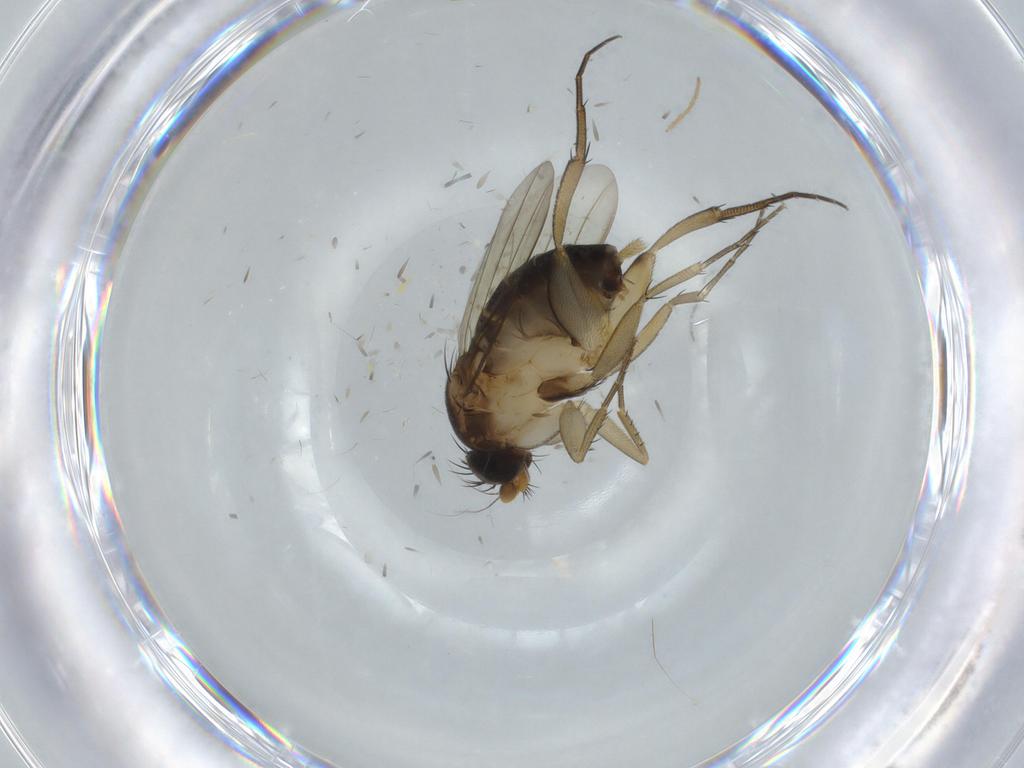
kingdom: Animalia
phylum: Arthropoda
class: Insecta
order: Diptera
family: Phoridae
